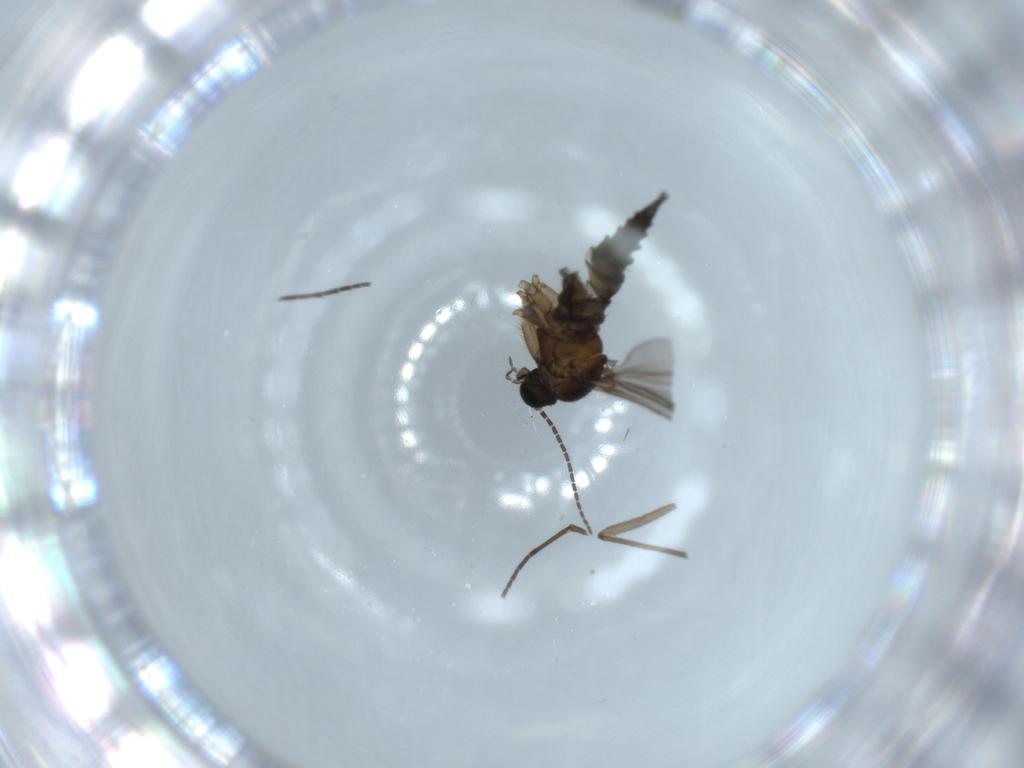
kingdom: Animalia
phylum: Arthropoda
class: Insecta
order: Diptera
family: Sciaridae
